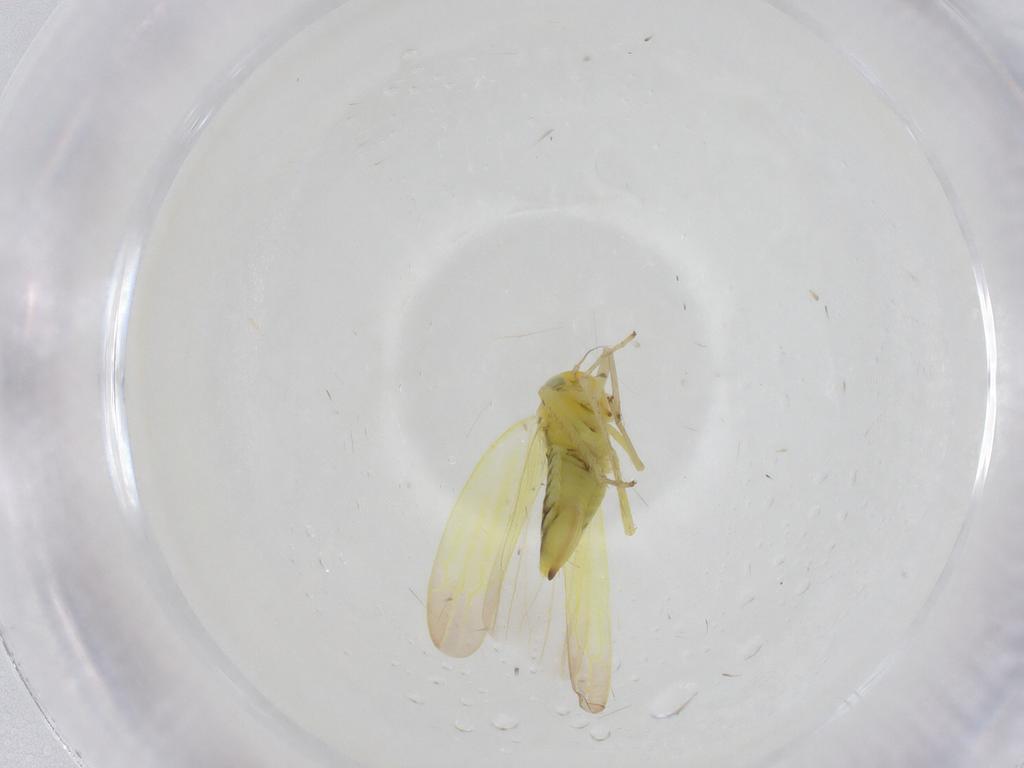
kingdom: Animalia
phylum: Arthropoda
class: Insecta
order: Hemiptera
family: Cicadellidae
